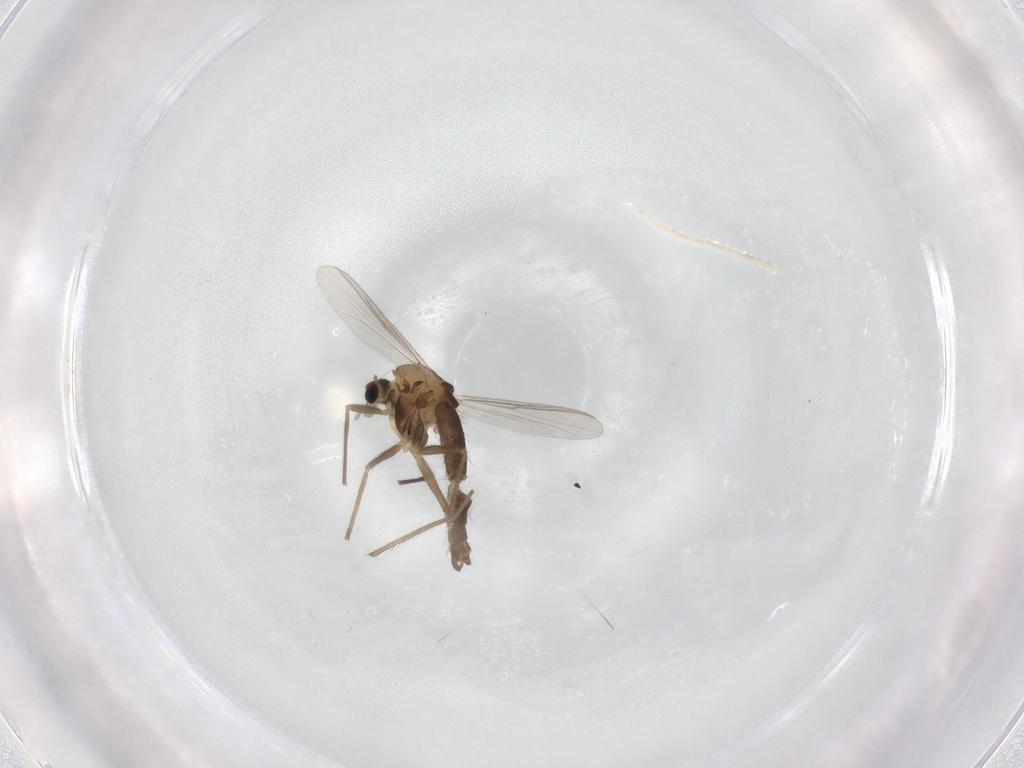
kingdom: Animalia
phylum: Arthropoda
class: Insecta
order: Diptera
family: Chironomidae
